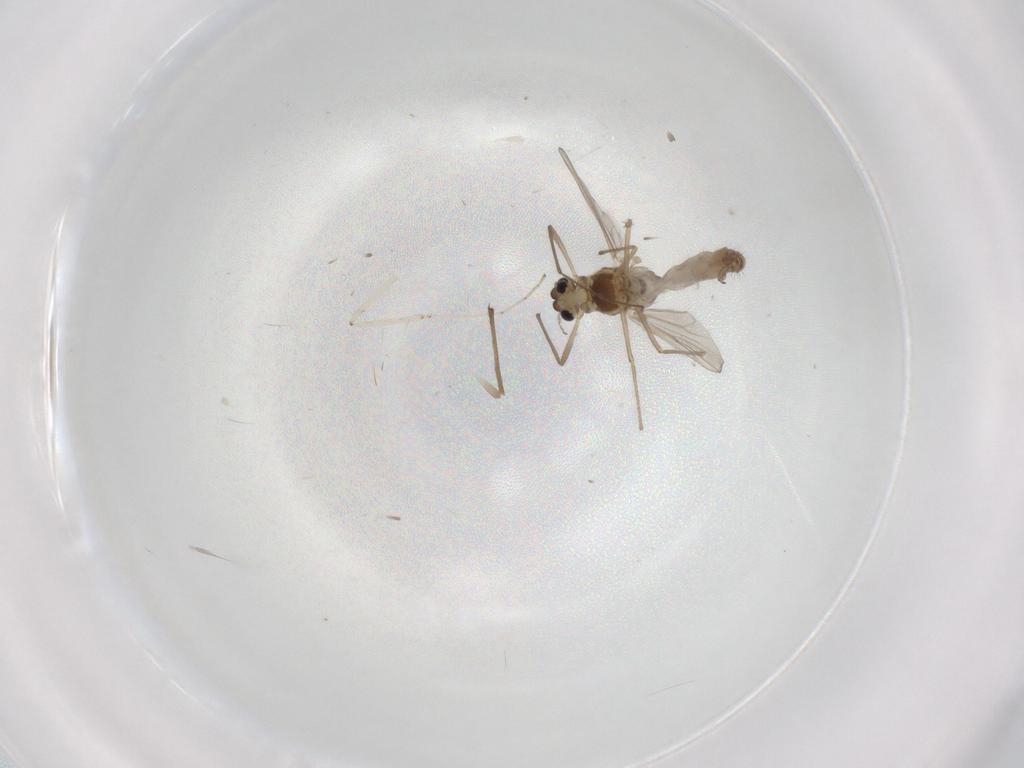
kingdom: Animalia
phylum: Arthropoda
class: Insecta
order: Diptera
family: Chironomidae
